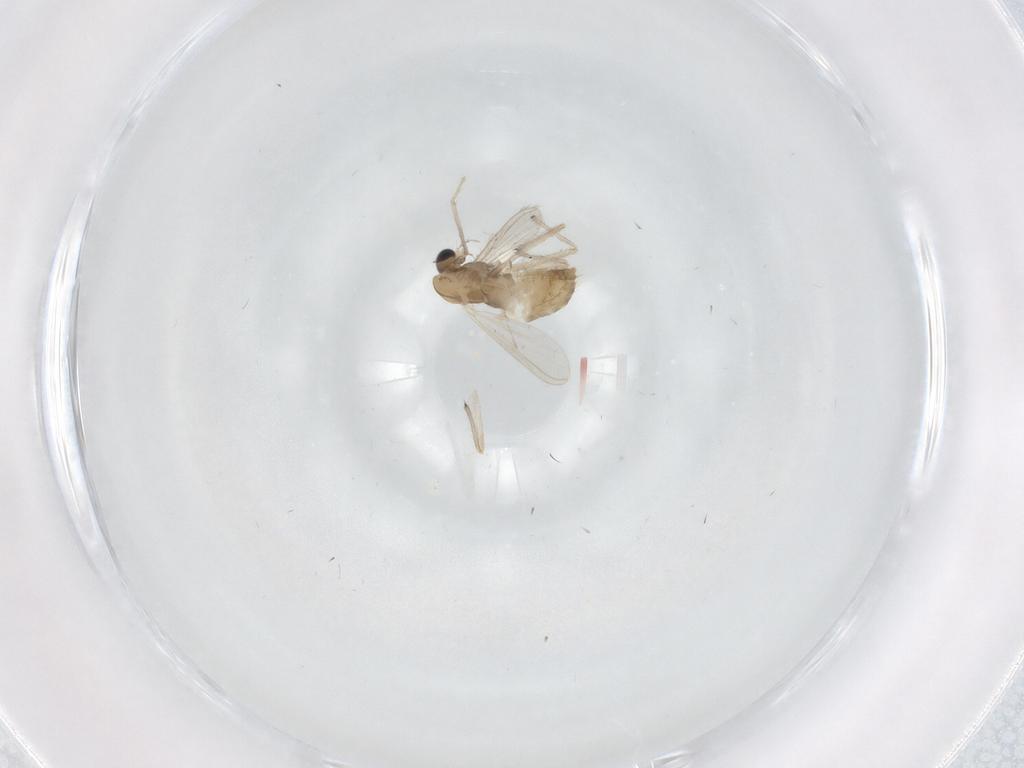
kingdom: Animalia
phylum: Arthropoda
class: Insecta
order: Diptera
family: Chironomidae
